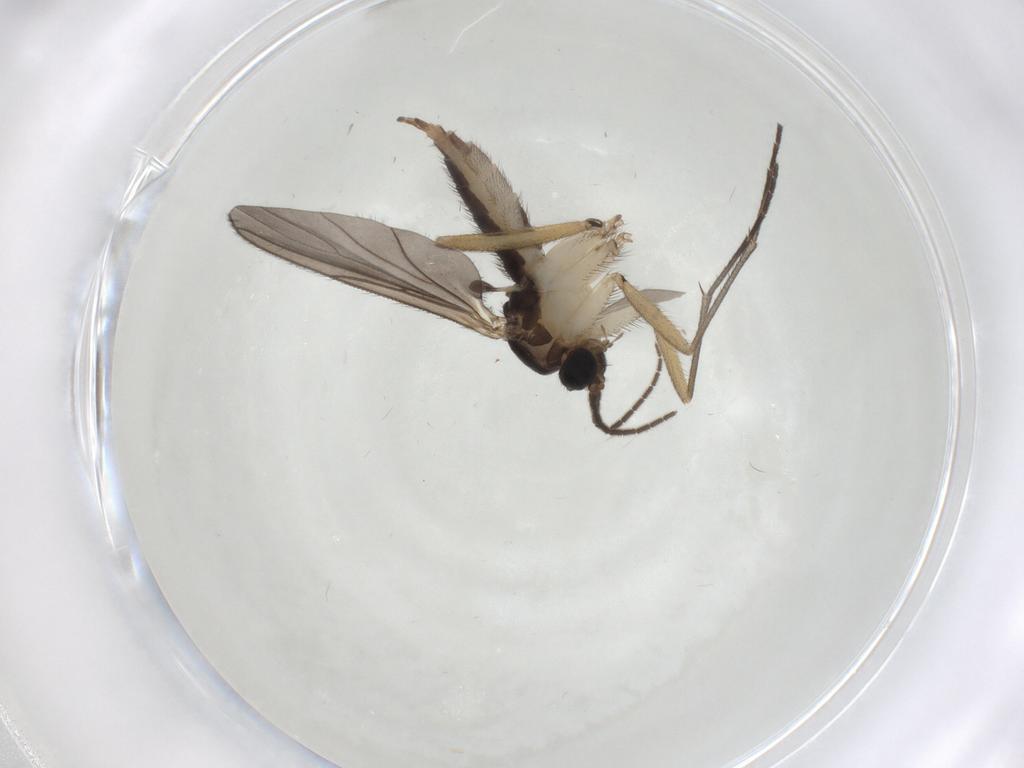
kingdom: Animalia
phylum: Arthropoda
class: Insecta
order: Diptera
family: Sciaridae
